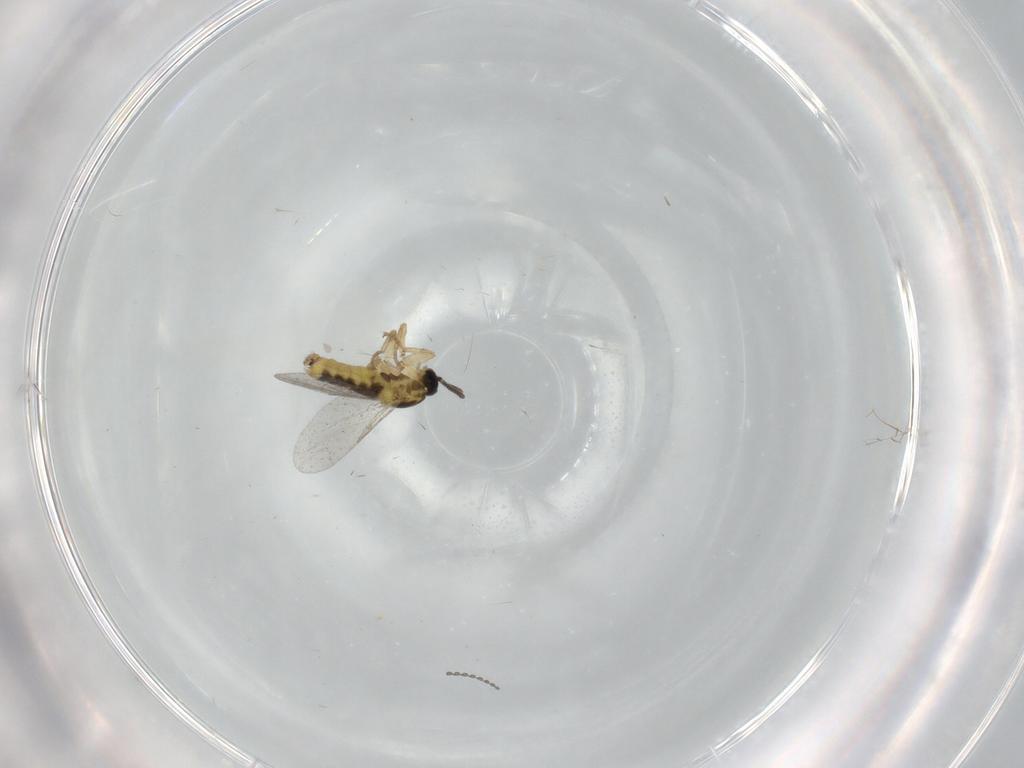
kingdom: Animalia
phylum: Arthropoda
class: Insecta
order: Diptera
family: Scatopsidae
